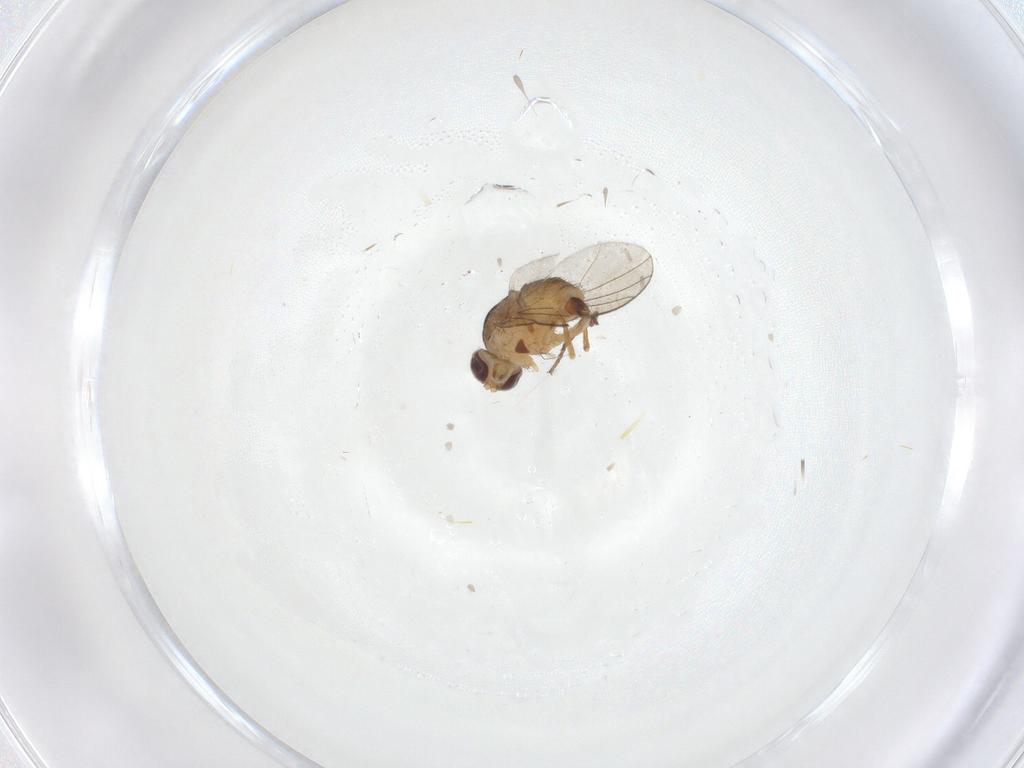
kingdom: Animalia
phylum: Arthropoda
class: Insecta
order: Diptera
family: Agromyzidae
